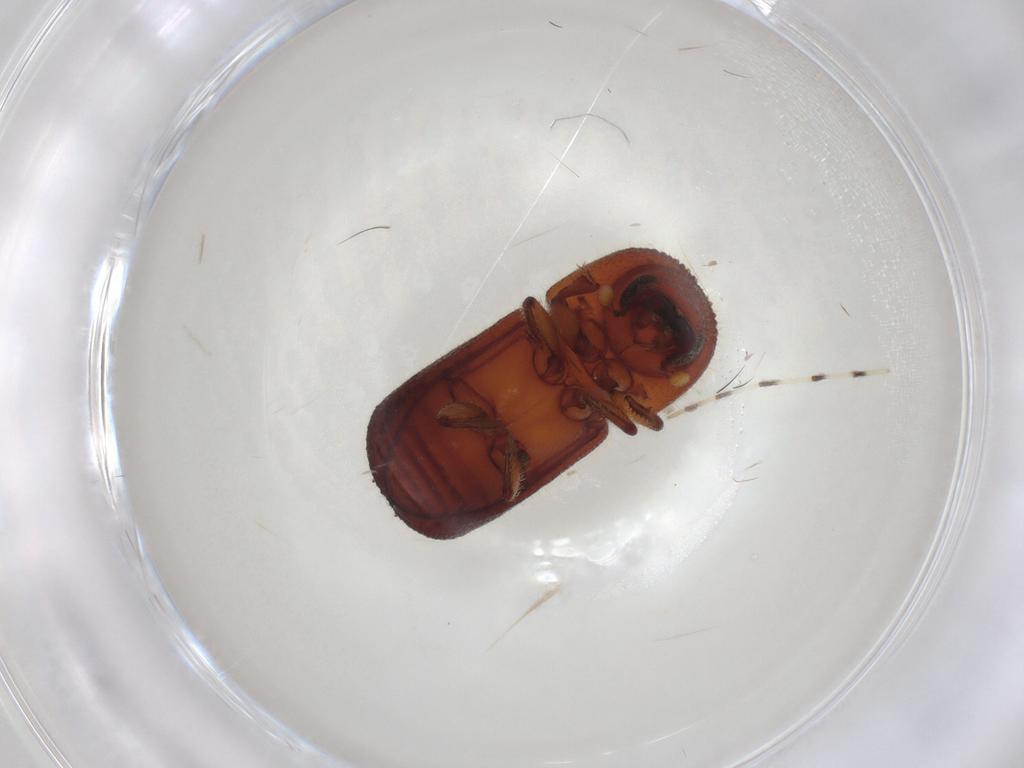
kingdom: Animalia
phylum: Arthropoda
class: Insecta
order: Coleoptera
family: Curculionidae
